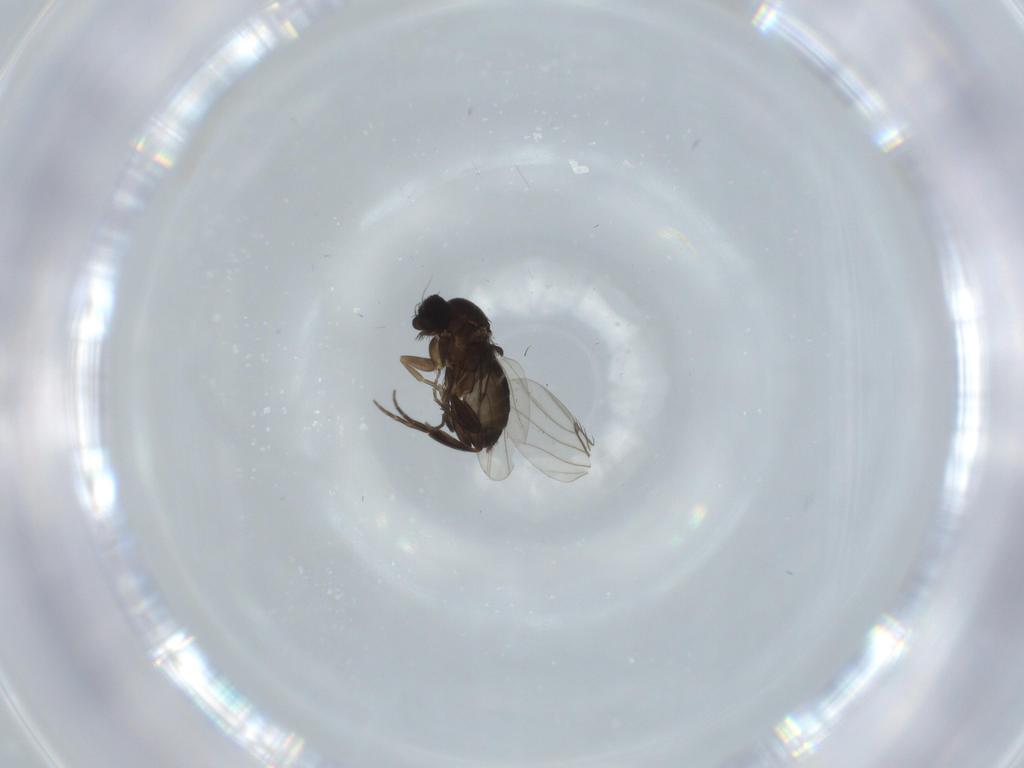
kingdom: Animalia
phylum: Arthropoda
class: Insecta
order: Diptera
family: Phoridae
